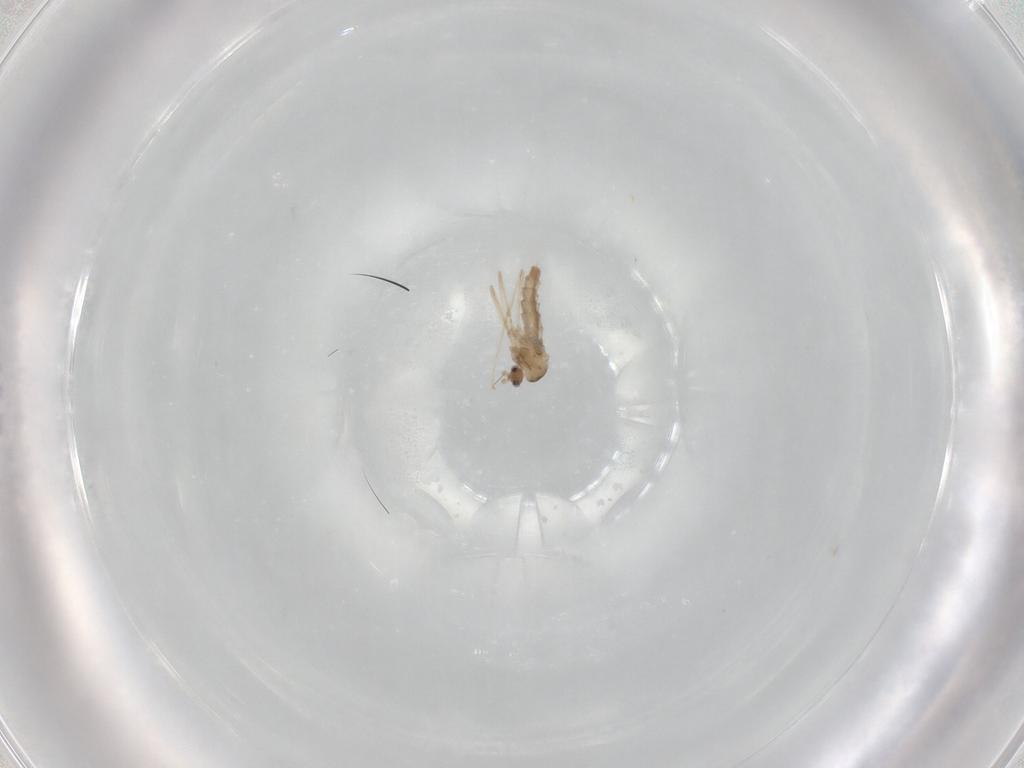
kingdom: Animalia
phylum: Arthropoda
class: Insecta
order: Diptera
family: Cecidomyiidae
